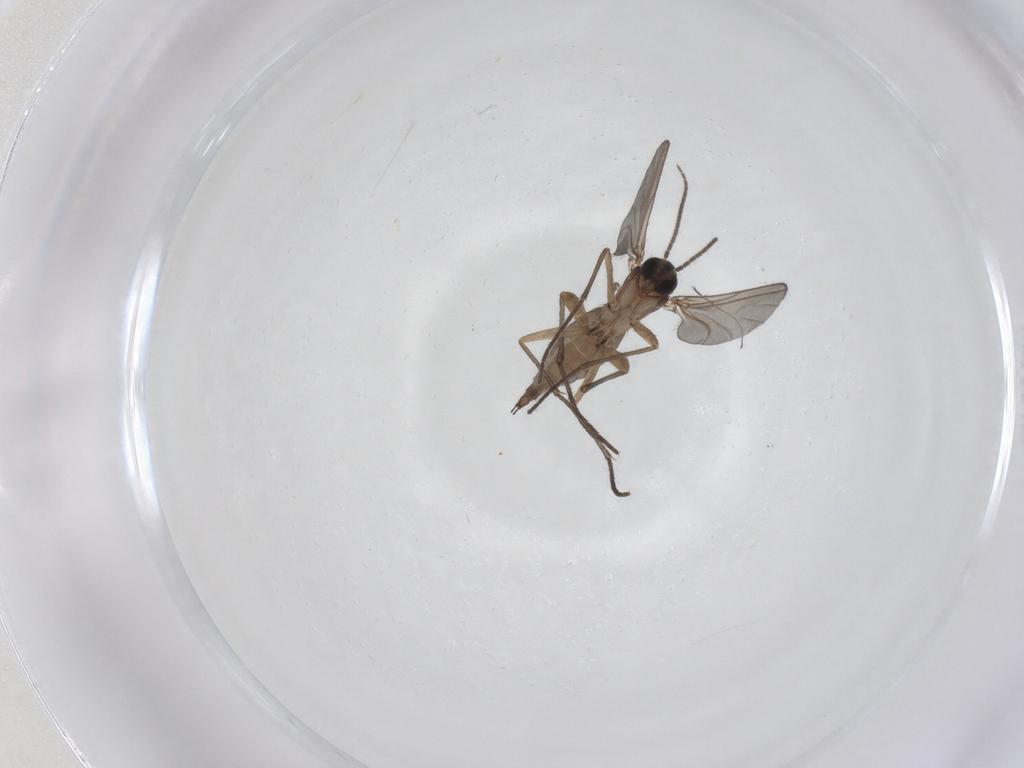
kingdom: Animalia
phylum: Arthropoda
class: Insecta
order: Diptera
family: Sciaridae
